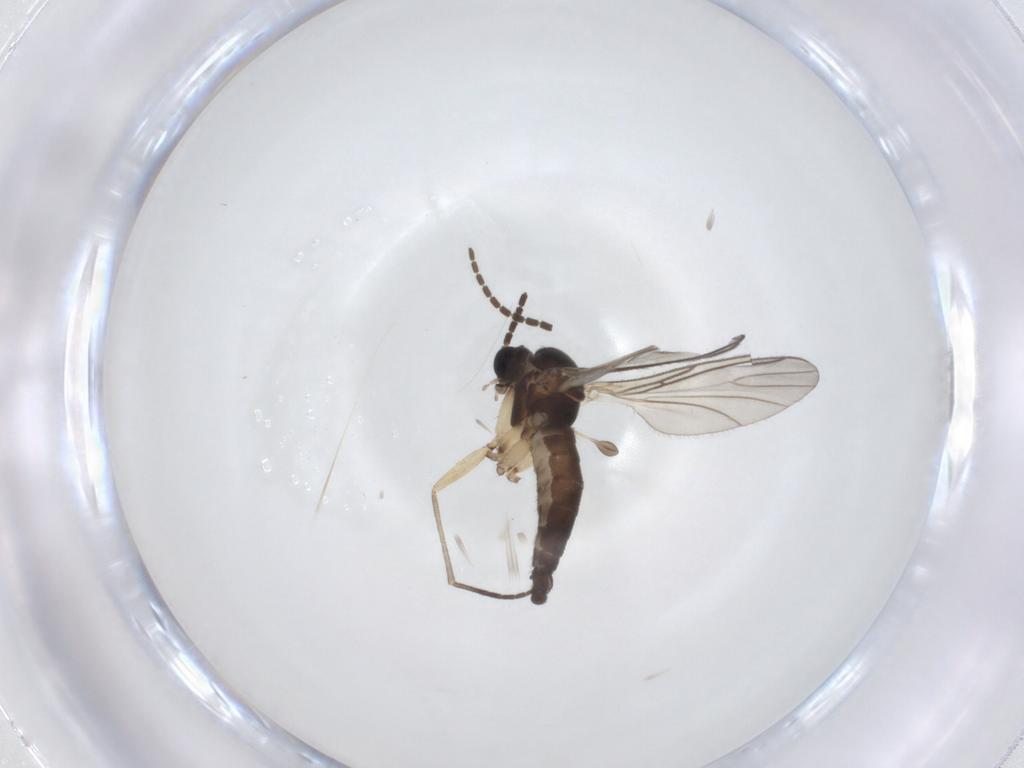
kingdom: Animalia
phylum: Arthropoda
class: Insecta
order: Diptera
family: Sciaridae
